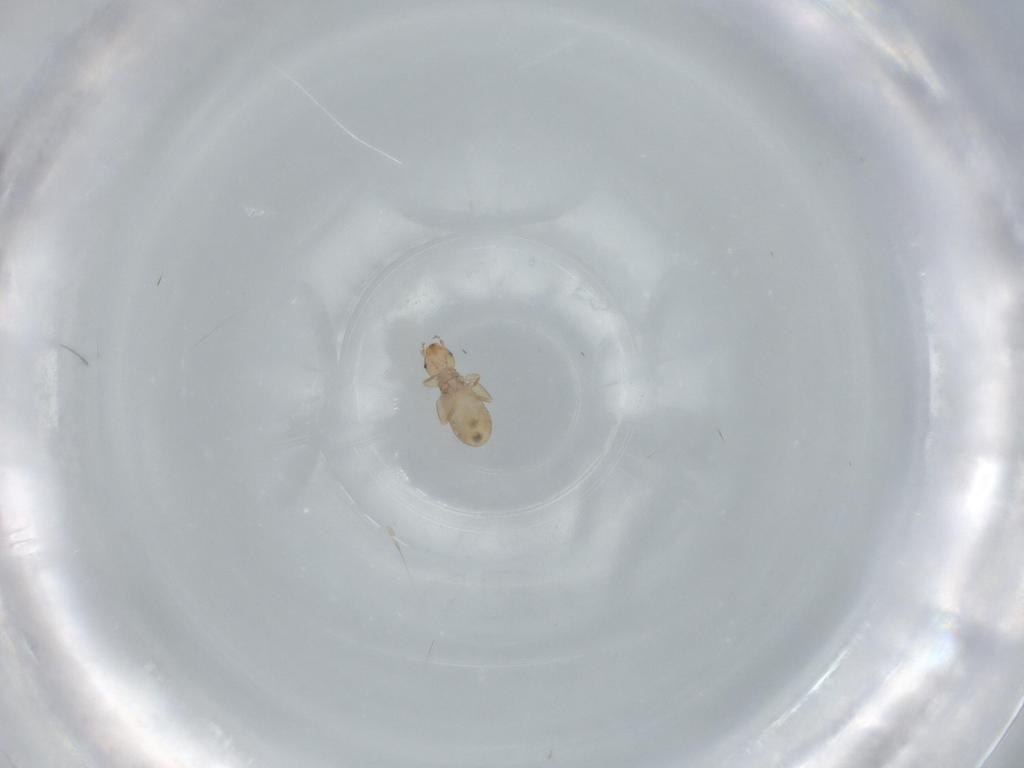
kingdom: Animalia
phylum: Arthropoda
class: Insecta
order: Psocodea
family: Liposcelididae
